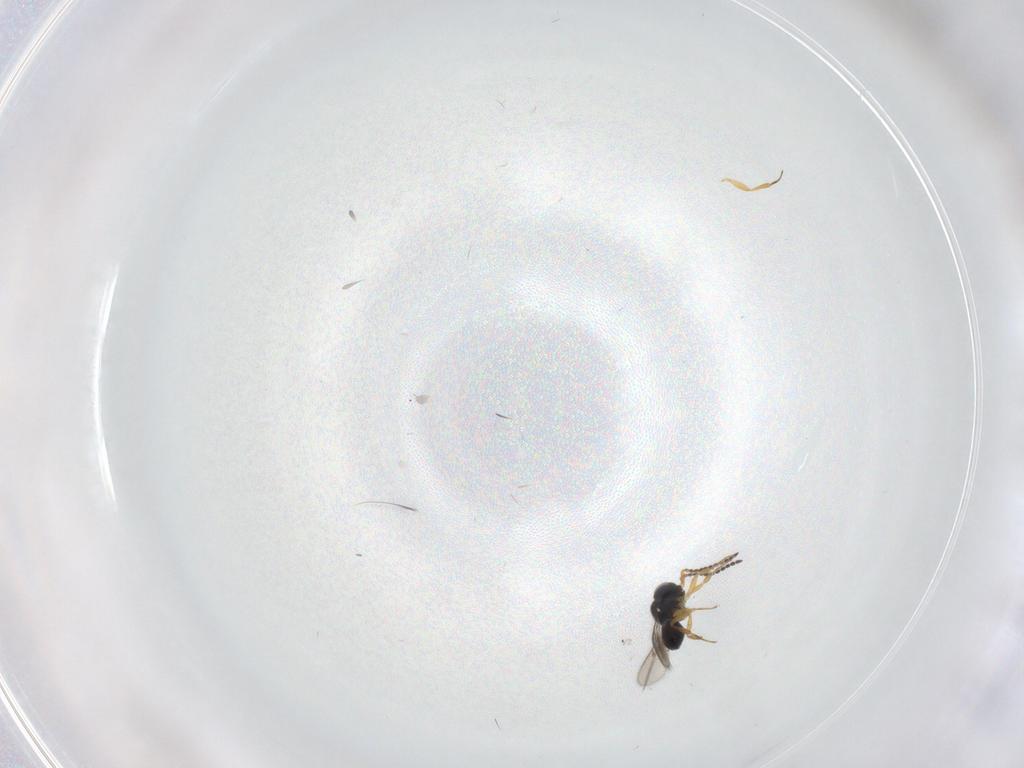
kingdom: Animalia
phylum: Arthropoda
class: Insecta
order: Hymenoptera
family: Scelionidae
